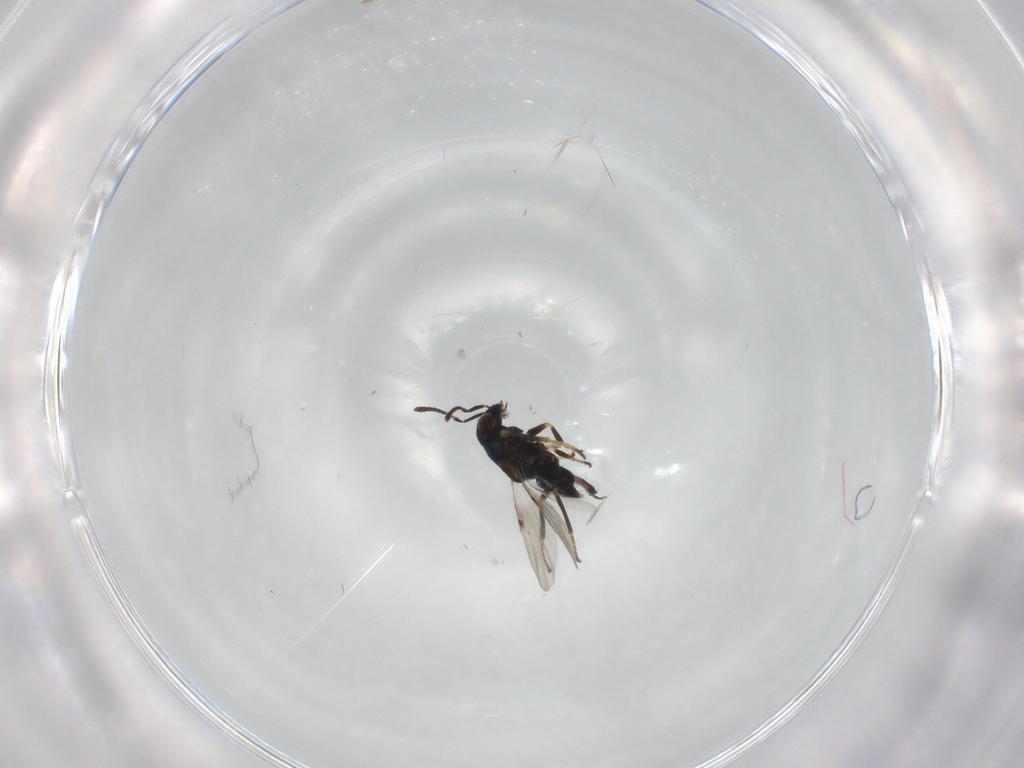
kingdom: Animalia
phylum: Arthropoda
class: Insecta
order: Hymenoptera
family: Encyrtidae
